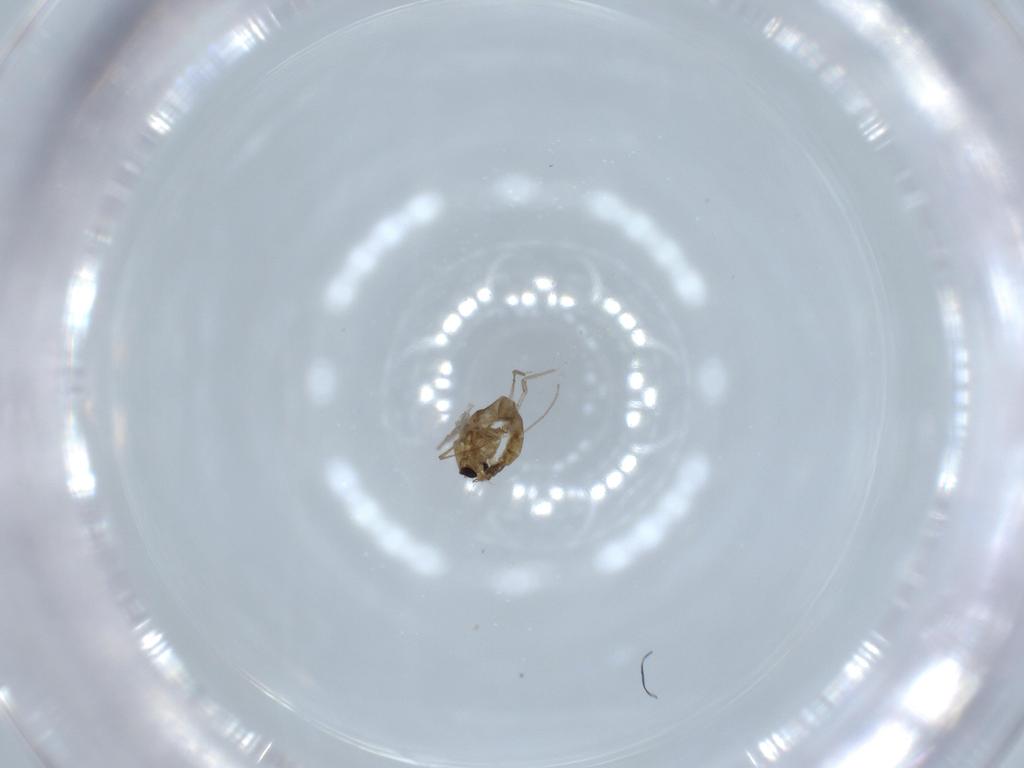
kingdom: Animalia
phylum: Arthropoda
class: Insecta
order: Diptera
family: Chironomidae
